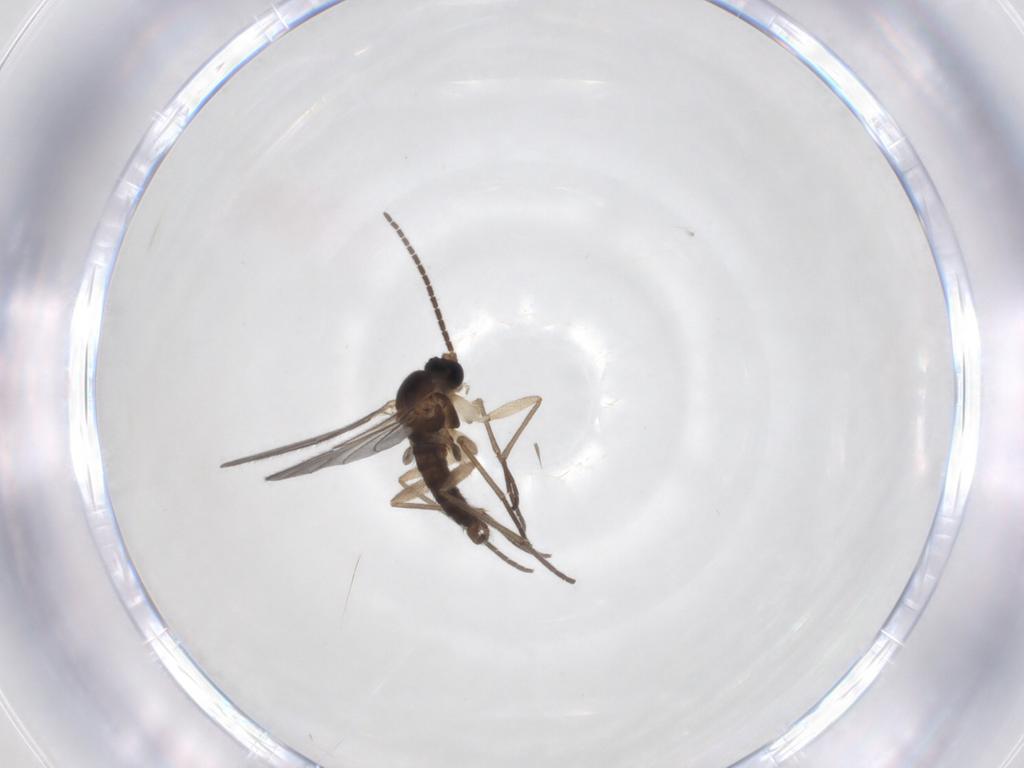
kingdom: Animalia
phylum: Arthropoda
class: Insecta
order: Diptera
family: Sciaridae
